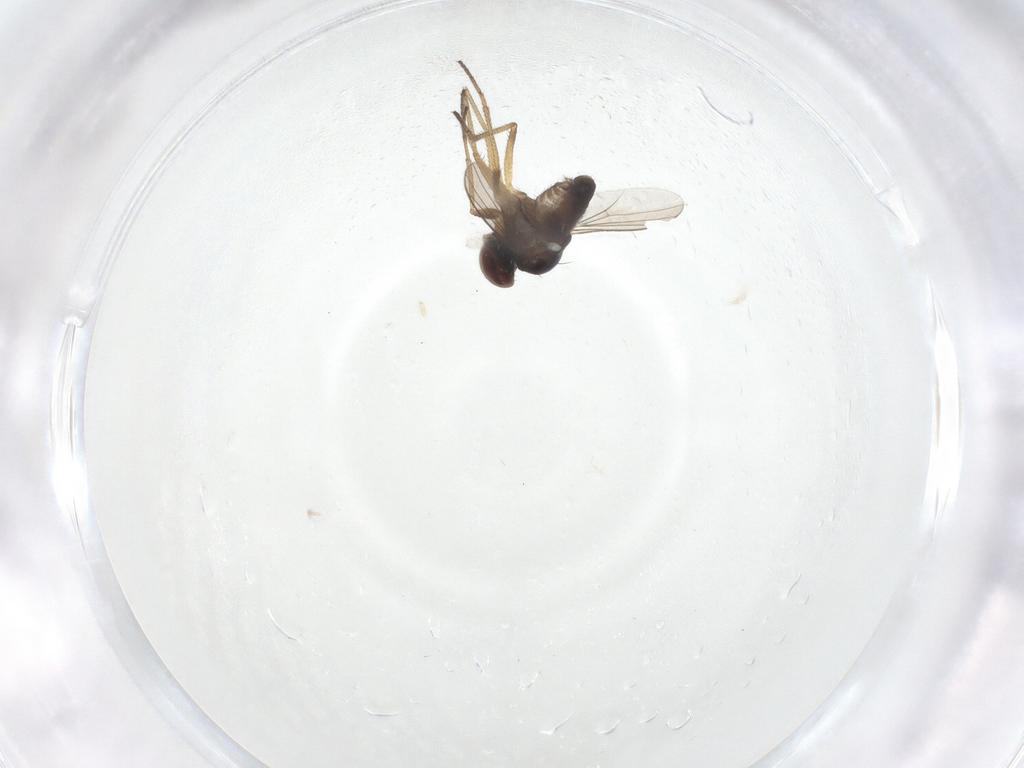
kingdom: Animalia
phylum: Arthropoda
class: Insecta
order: Diptera
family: Dolichopodidae
